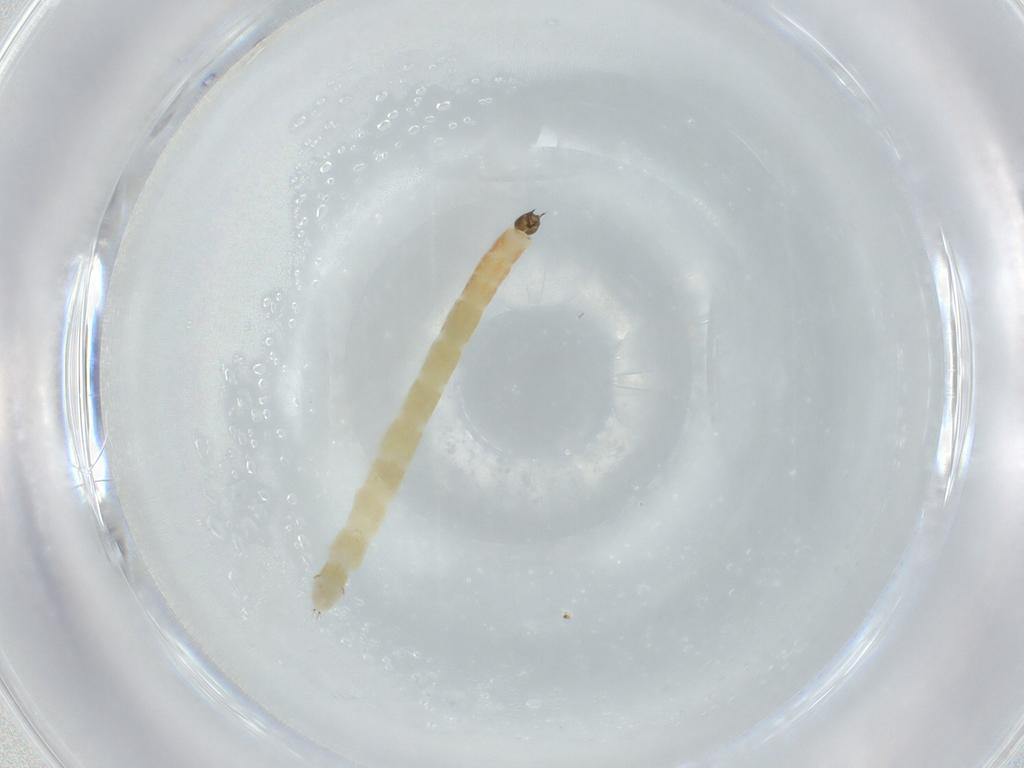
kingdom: Animalia
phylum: Arthropoda
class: Insecta
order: Diptera
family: Chironomidae
